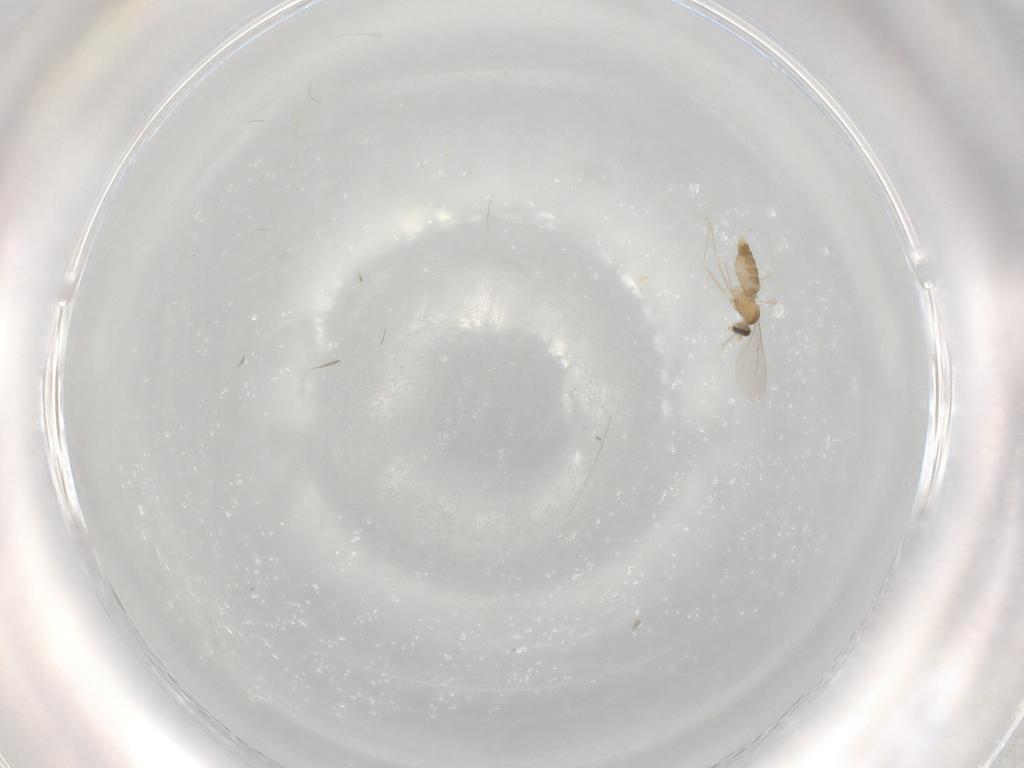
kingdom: Animalia
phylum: Arthropoda
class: Insecta
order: Diptera
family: Cecidomyiidae
